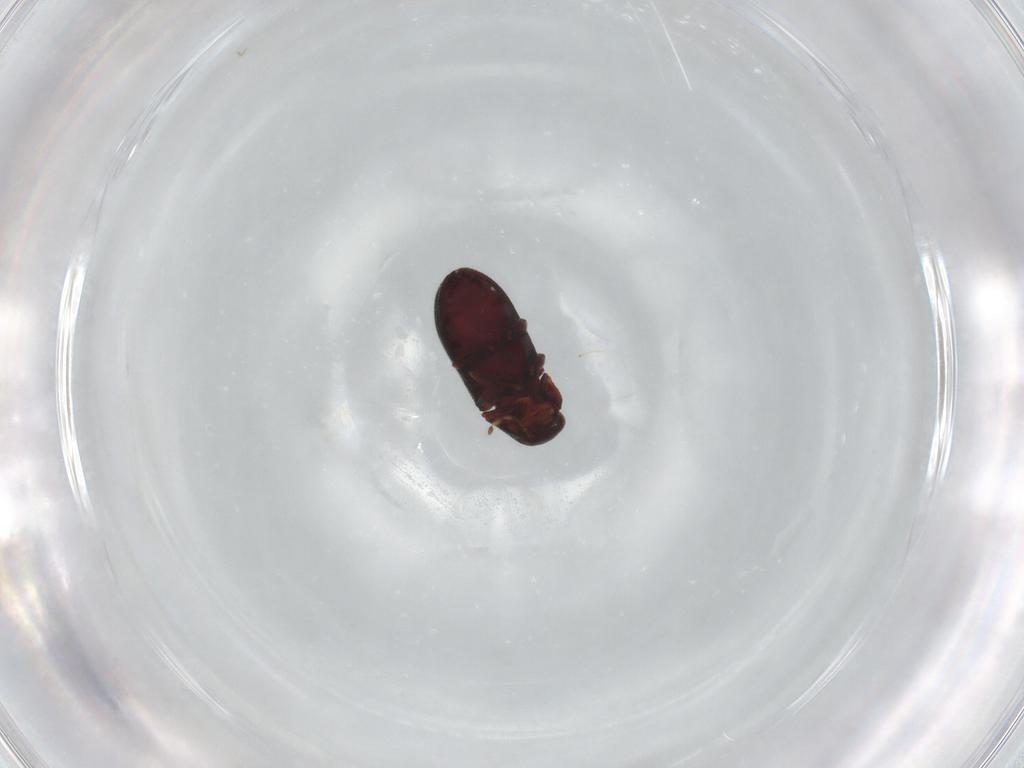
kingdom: Animalia
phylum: Arthropoda
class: Insecta
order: Coleoptera
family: Ptinidae
